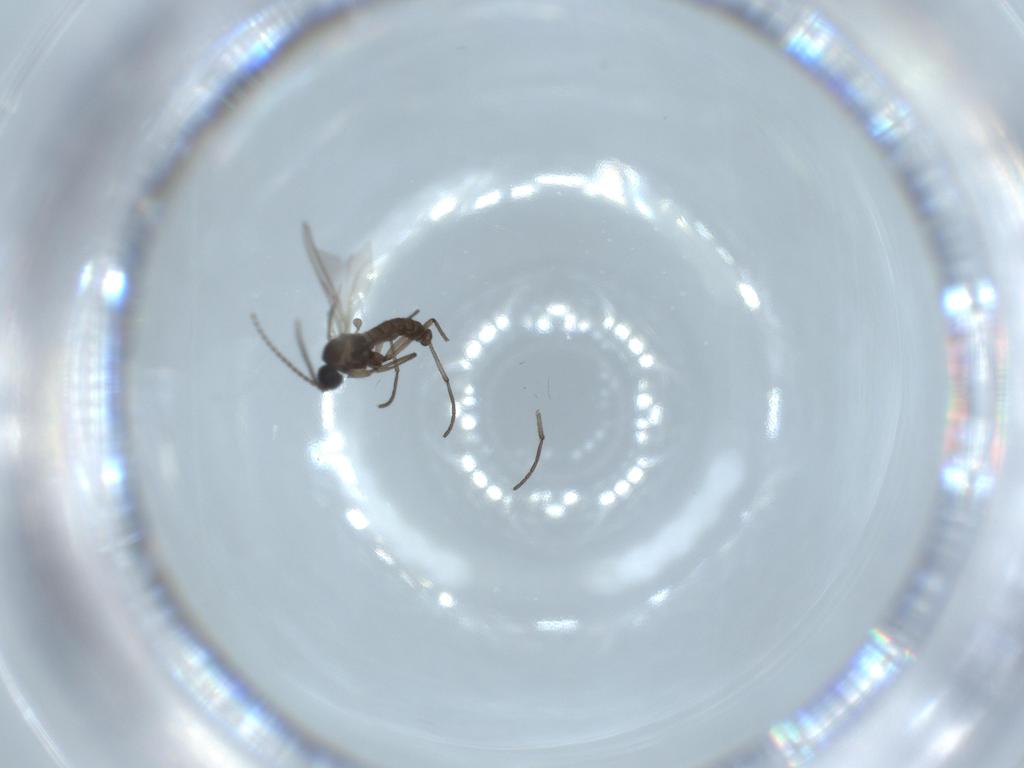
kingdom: Animalia
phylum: Arthropoda
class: Insecta
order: Diptera
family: Sciaridae
